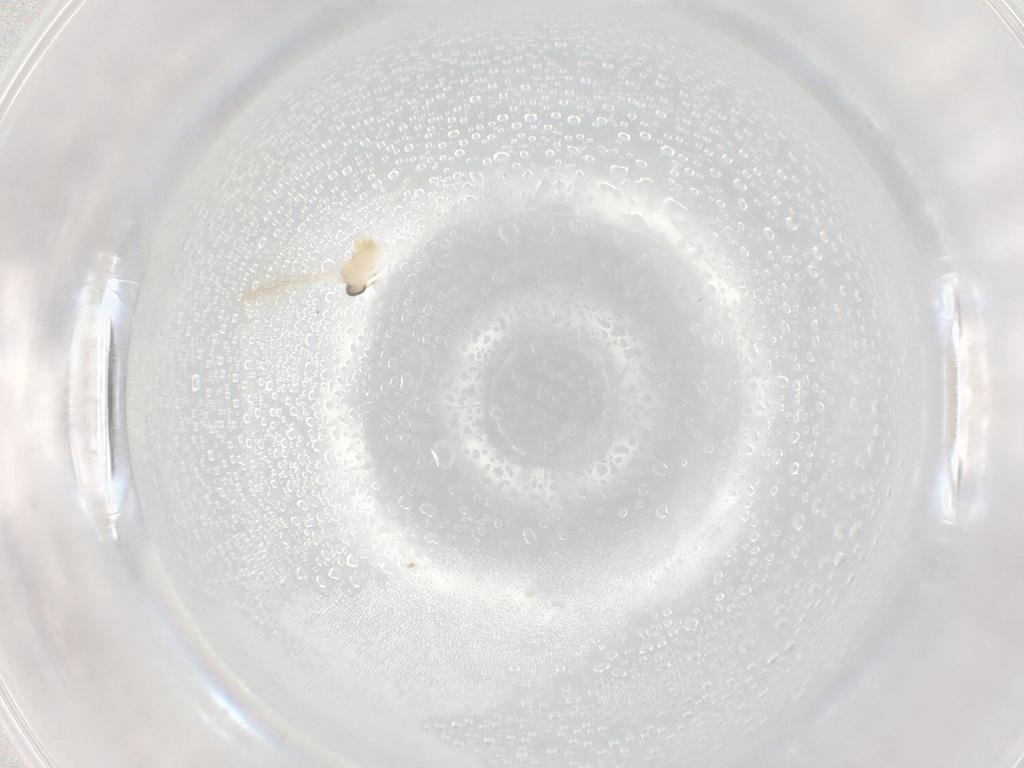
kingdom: Animalia
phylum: Arthropoda
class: Insecta
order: Diptera
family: Cecidomyiidae
